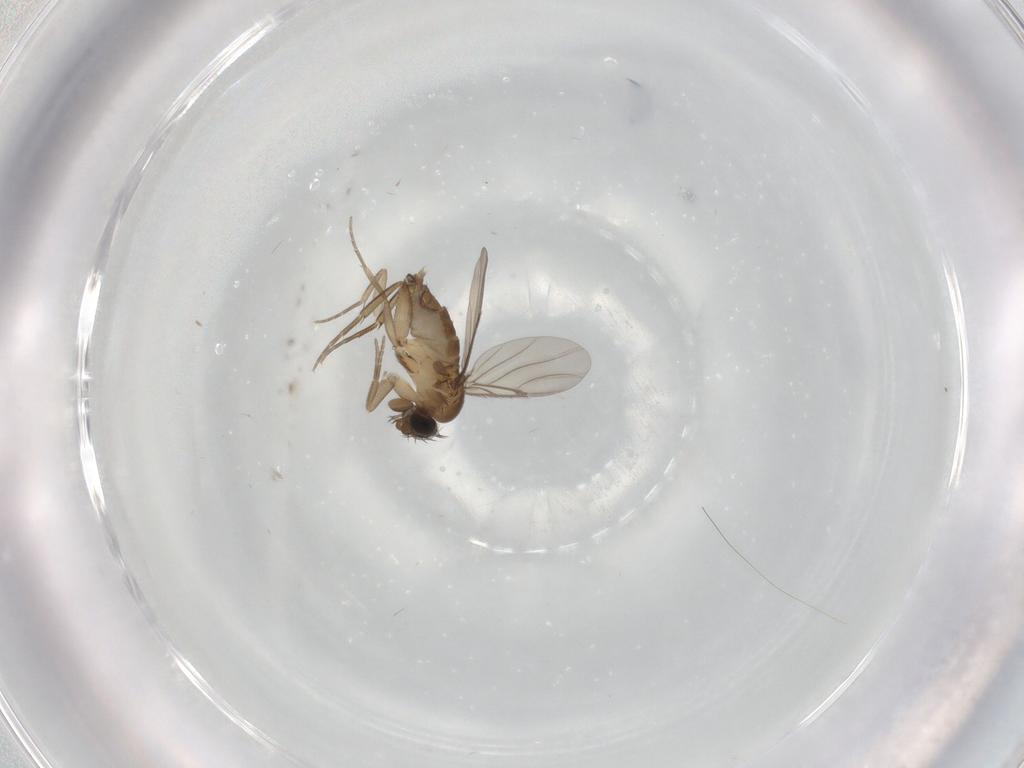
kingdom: Animalia
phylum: Arthropoda
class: Insecta
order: Diptera
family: Phoridae
